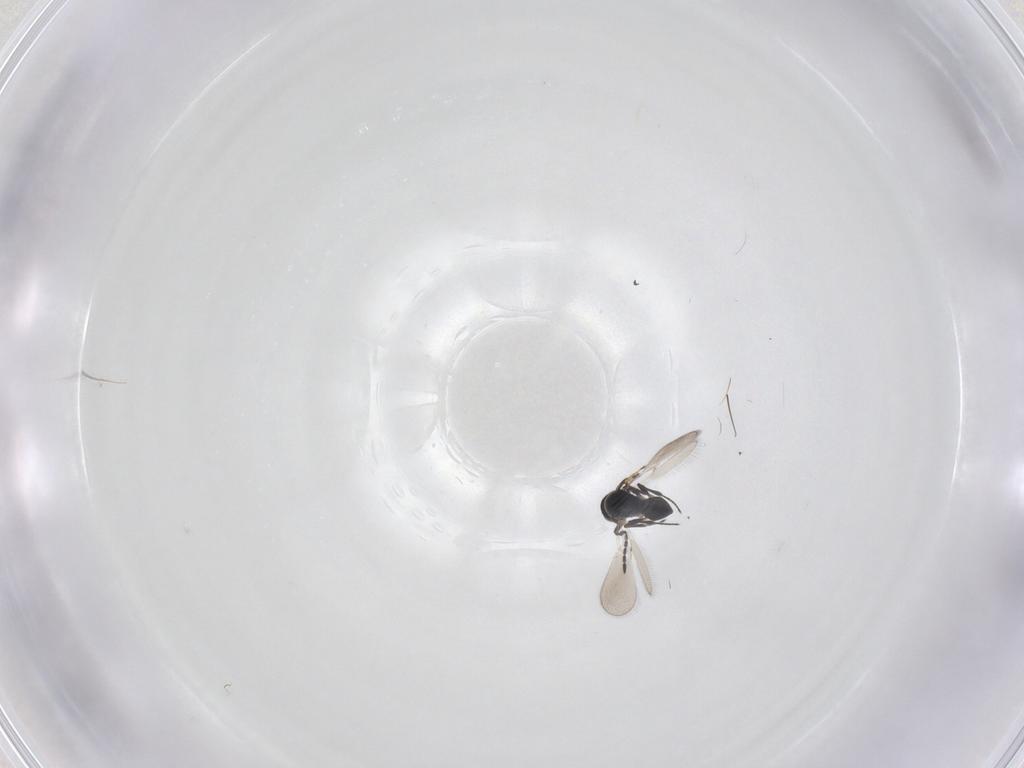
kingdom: Animalia
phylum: Arthropoda
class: Insecta
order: Hymenoptera
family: Platygastridae
